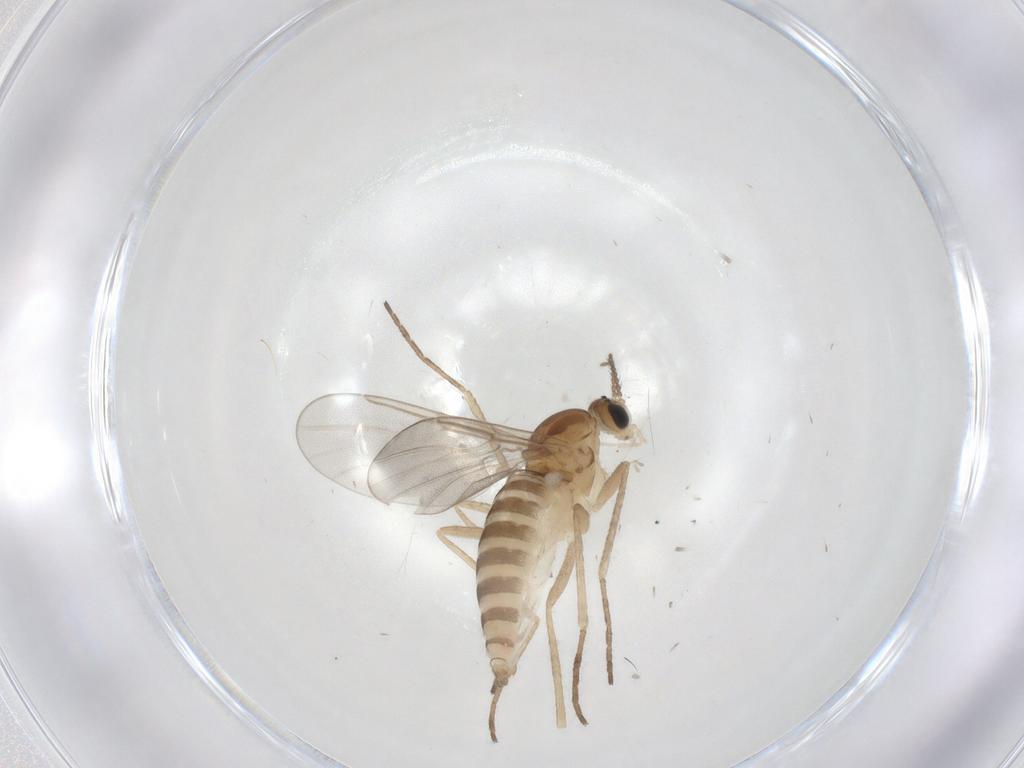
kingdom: Animalia
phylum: Arthropoda
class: Insecta
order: Diptera
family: Cecidomyiidae
